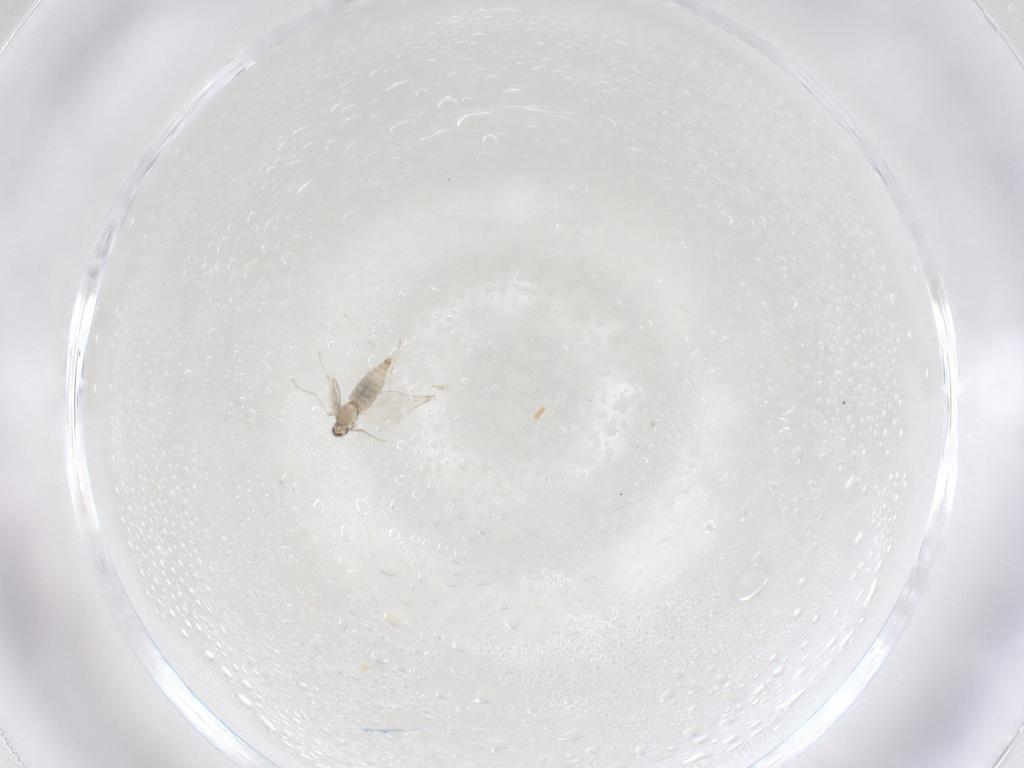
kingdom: Animalia
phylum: Arthropoda
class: Insecta
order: Diptera
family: Cecidomyiidae
